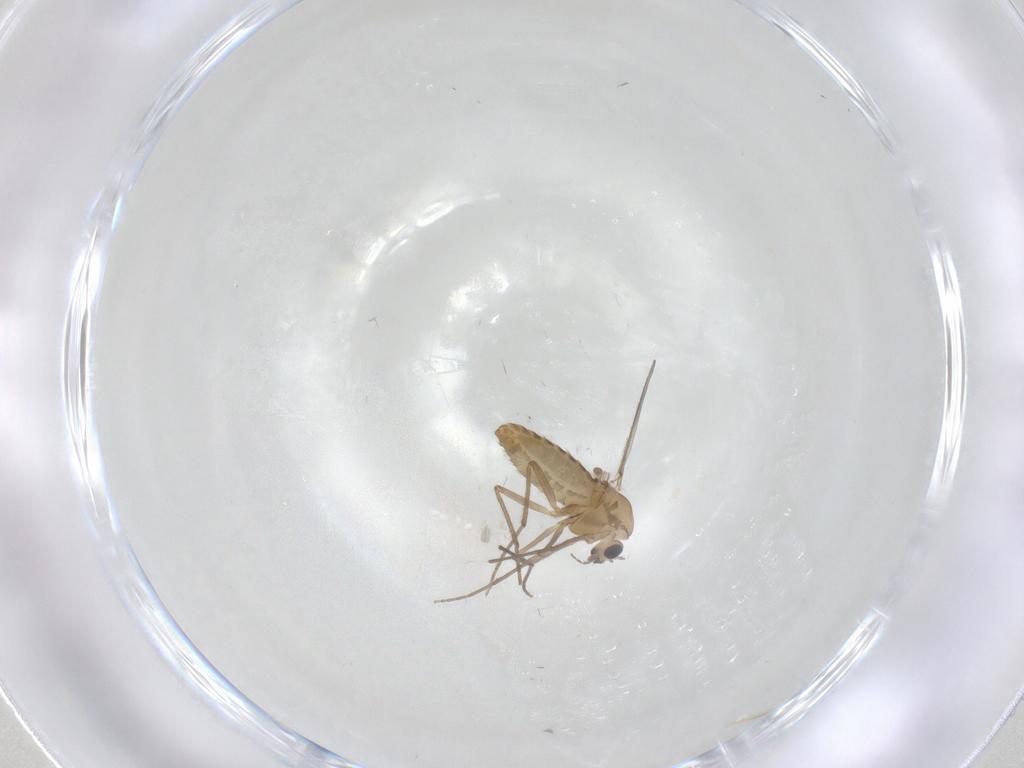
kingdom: Animalia
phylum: Arthropoda
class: Insecta
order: Diptera
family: Chironomidae
